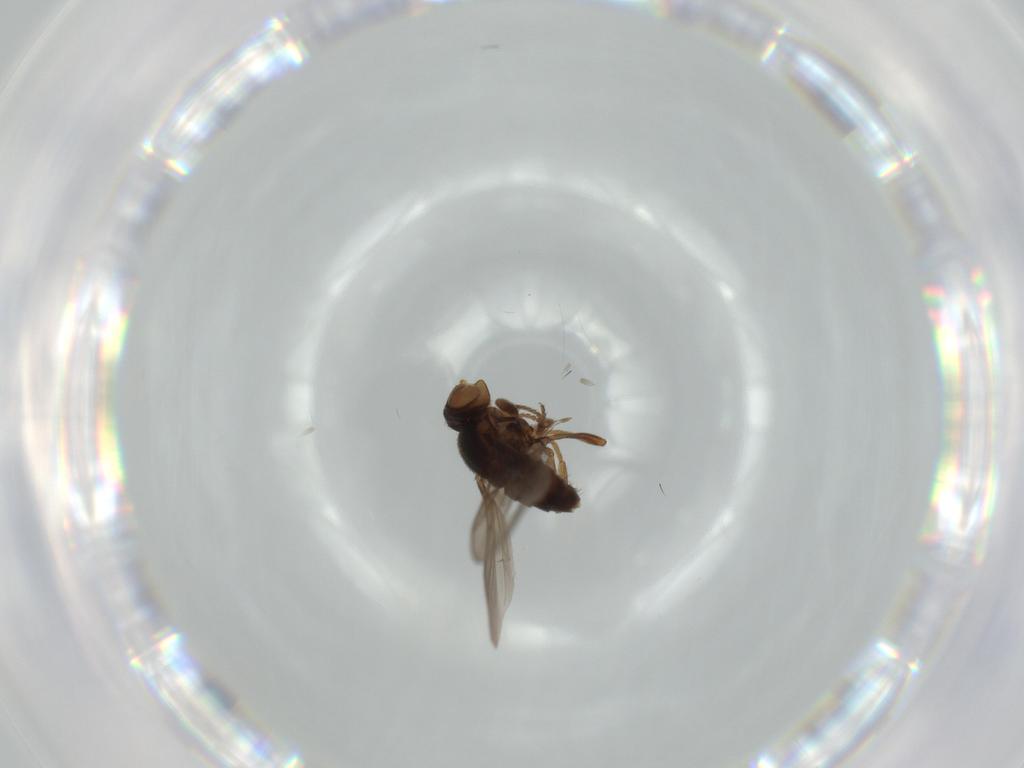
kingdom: Animalia
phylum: Arthropoda
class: Insecta
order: Diptera
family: Chloropidae
